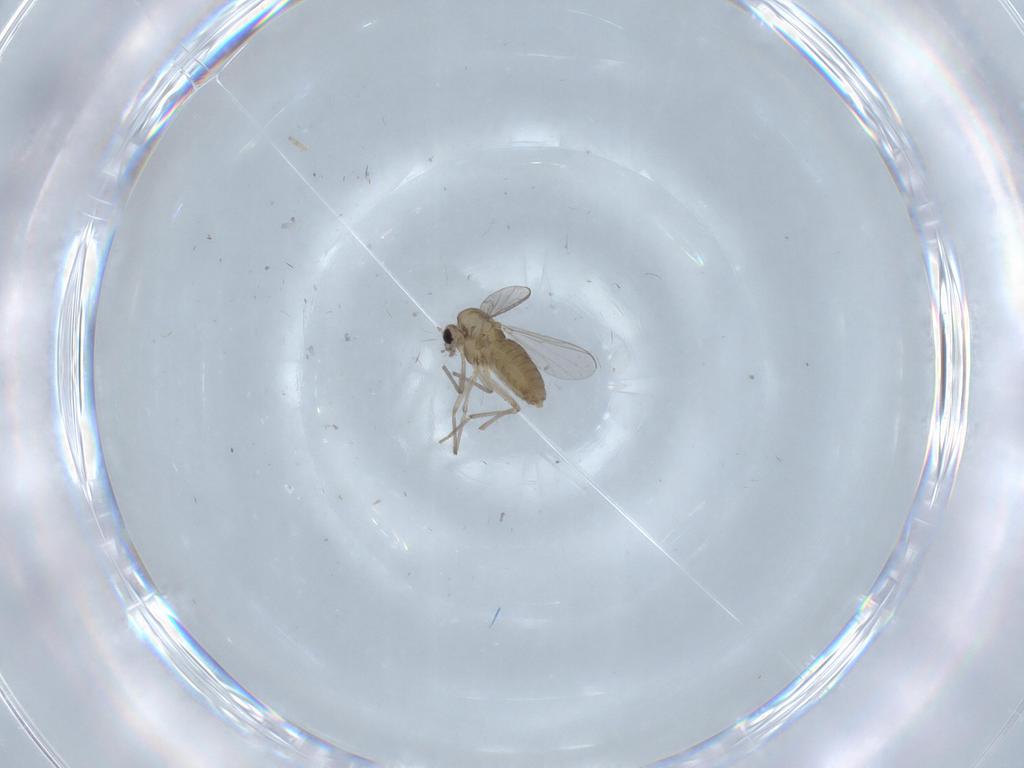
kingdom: Animalia
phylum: Arthropoda
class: Insecta
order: Diptera
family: Chironomidae
